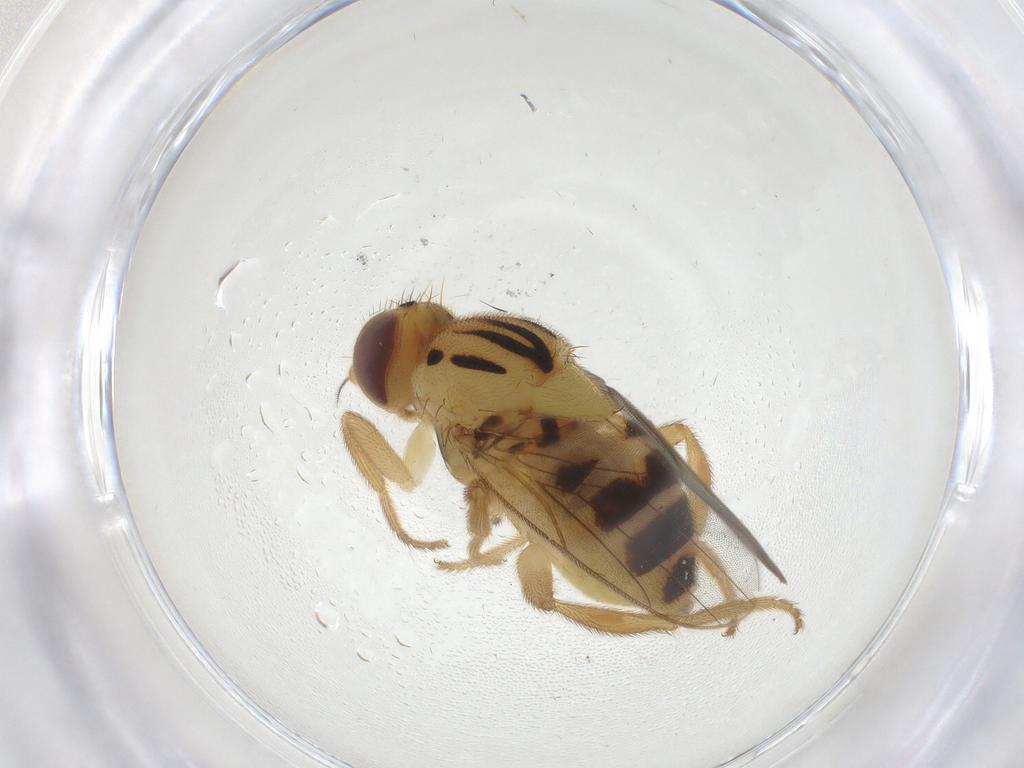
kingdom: Animalia
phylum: Arthropoda
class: Insecta
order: Diptera
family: Ceratopogonidae
